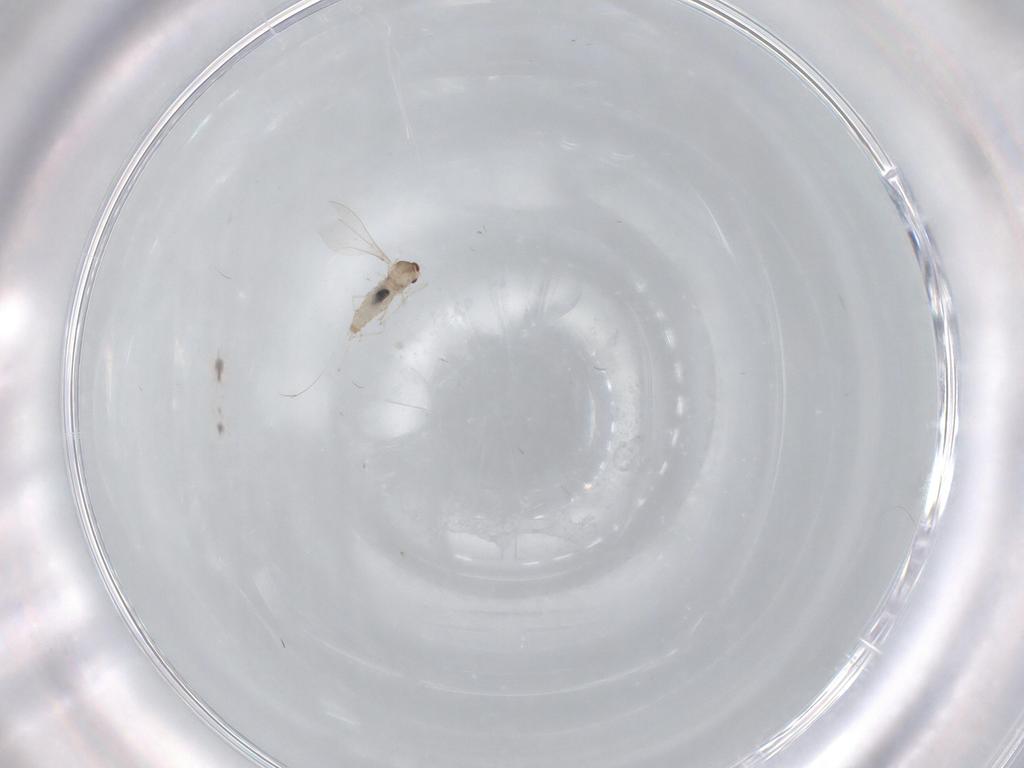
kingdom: Animalia
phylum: Arthropoda
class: Insecta
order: Diptera
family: Cecidomyiidae
